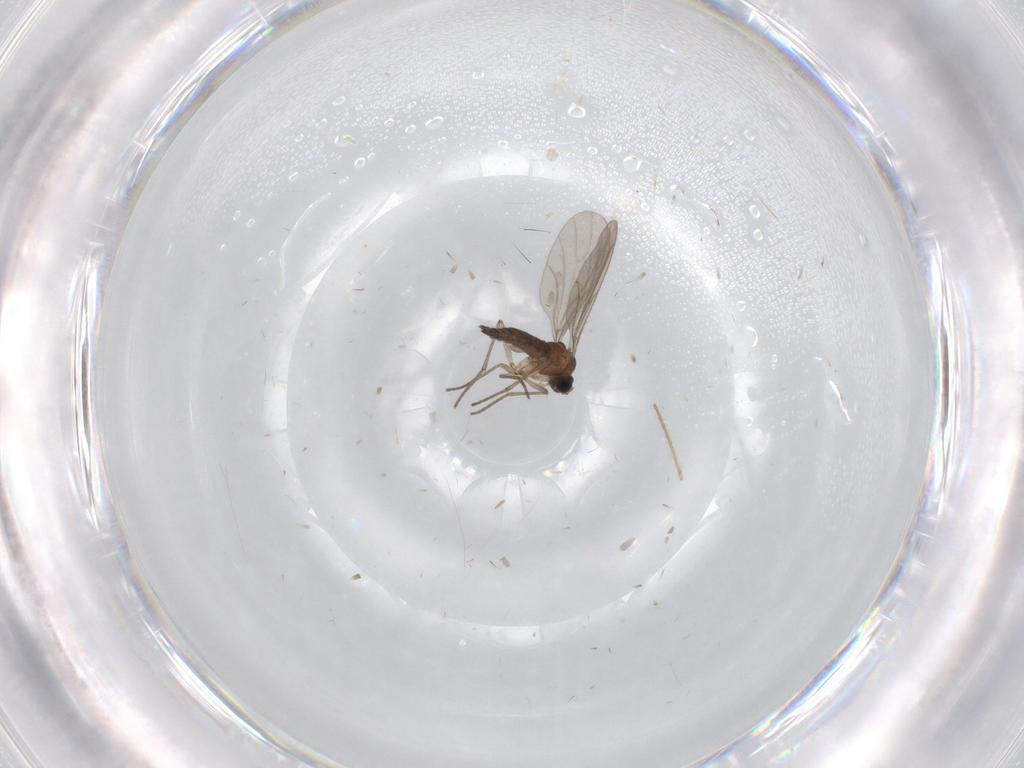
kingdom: Animalia
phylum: Arthropoda
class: Insecta
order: Diptera
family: Sciaridae
